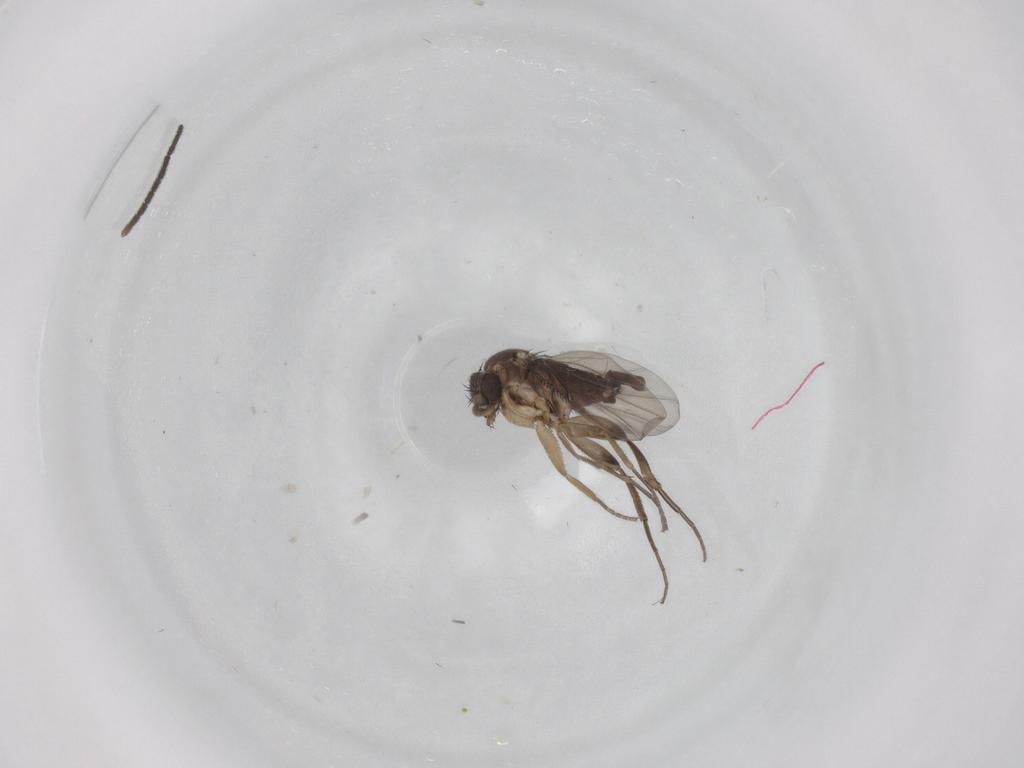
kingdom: Animalia
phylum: Arthropoda
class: Insecta
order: Diptera
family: Phoridae
